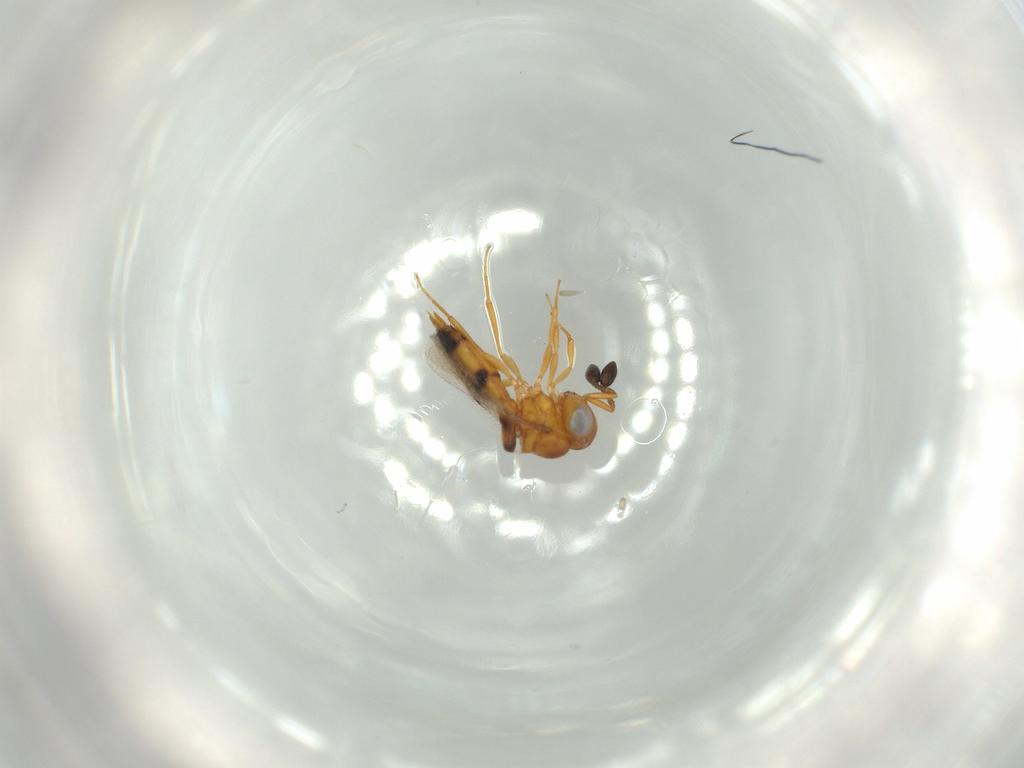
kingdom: Animalia
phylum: Arthropoda
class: Insecta
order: Hymenoptera
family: Scelionidae
